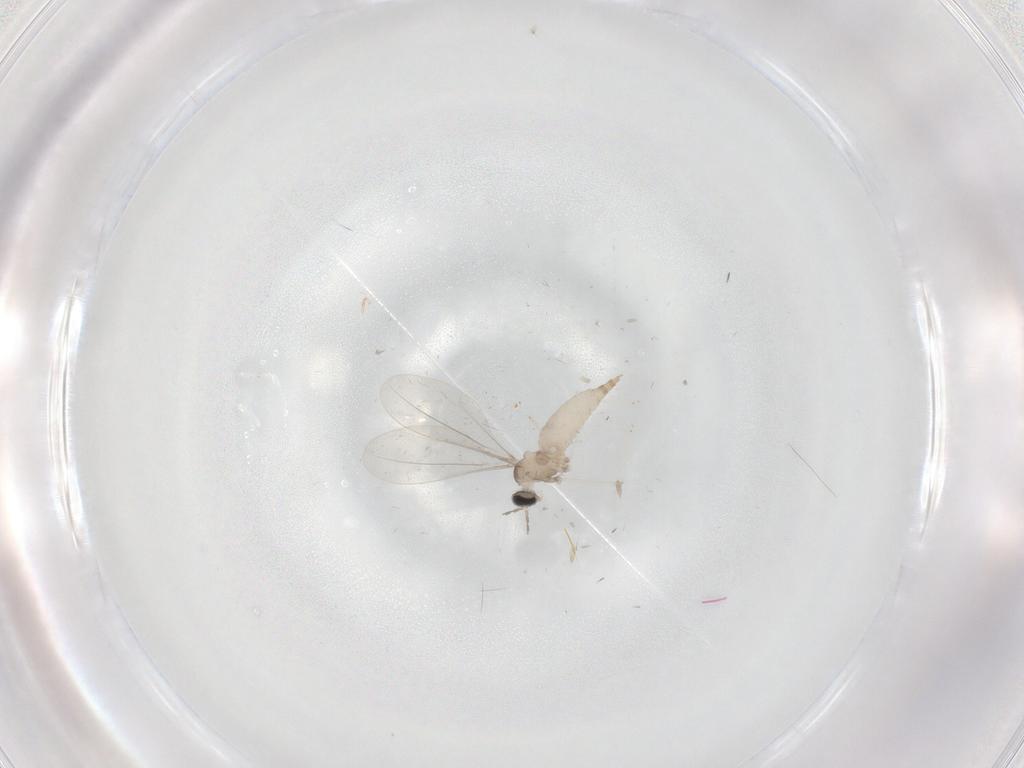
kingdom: Animalia
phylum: Arthropoda
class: Insecta
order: Diptera
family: Cecidomyiidae
